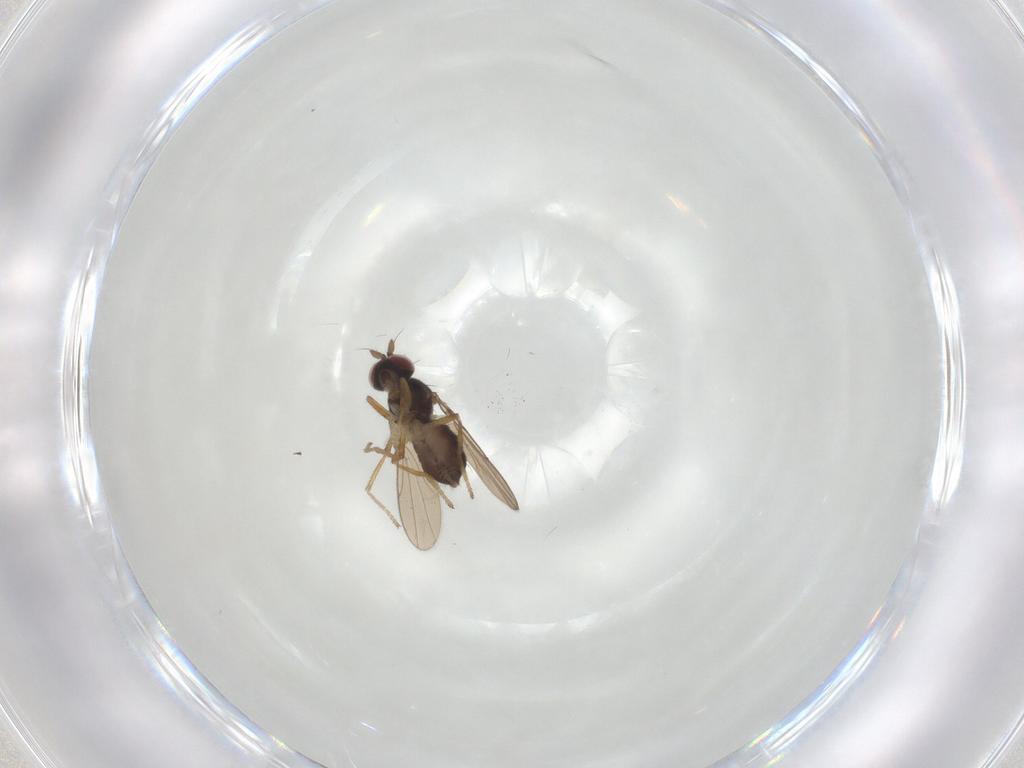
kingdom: Animalia
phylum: Arthropoda
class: Insecta
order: Diptera
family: Ephydridae
